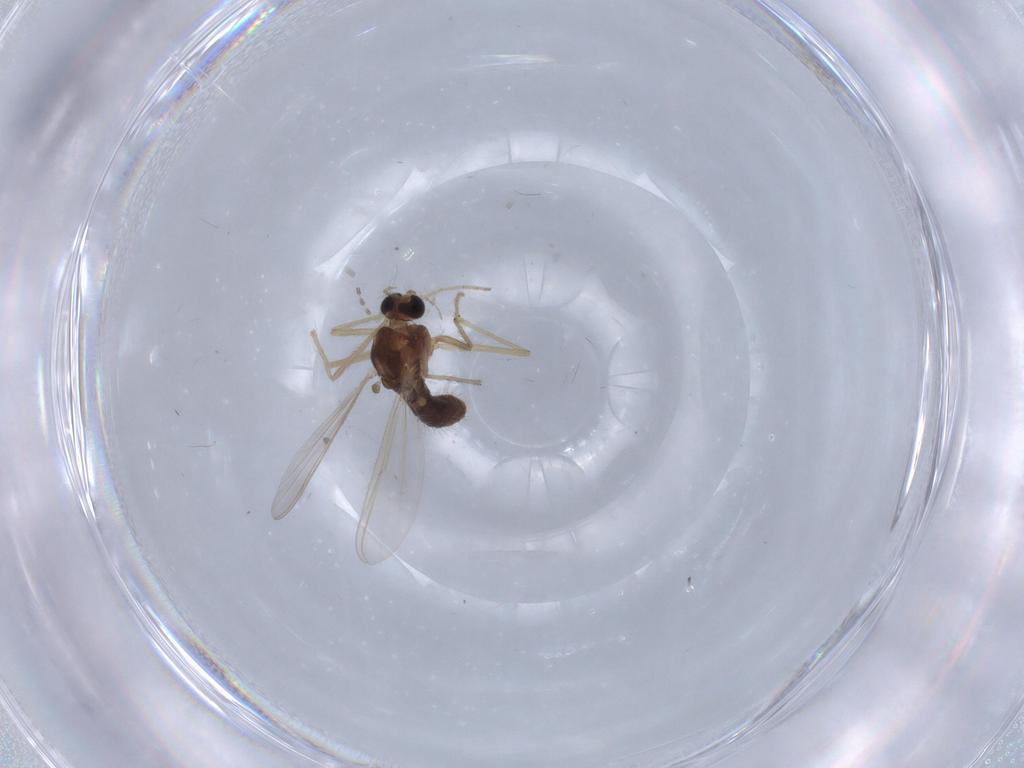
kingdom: Animalia
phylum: Arthropoda
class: Insecta
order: Diptera
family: Chironomidae
